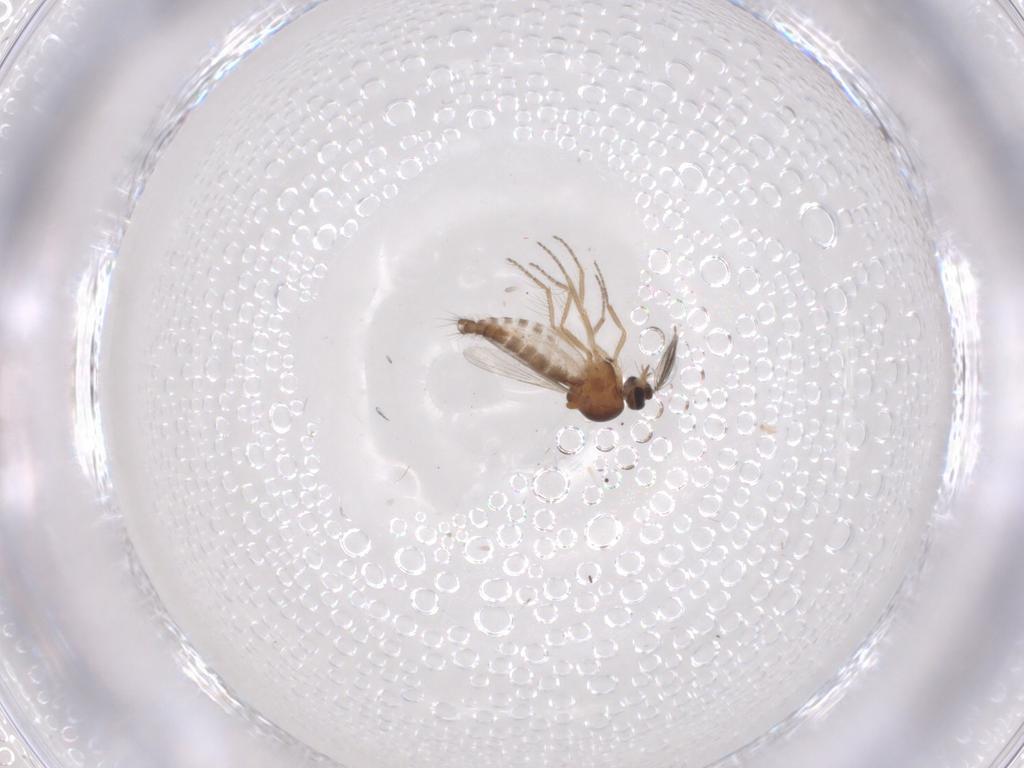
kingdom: Animalia
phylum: Arthropoda
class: Insecta
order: Diptera
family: Ceratopogonidae
